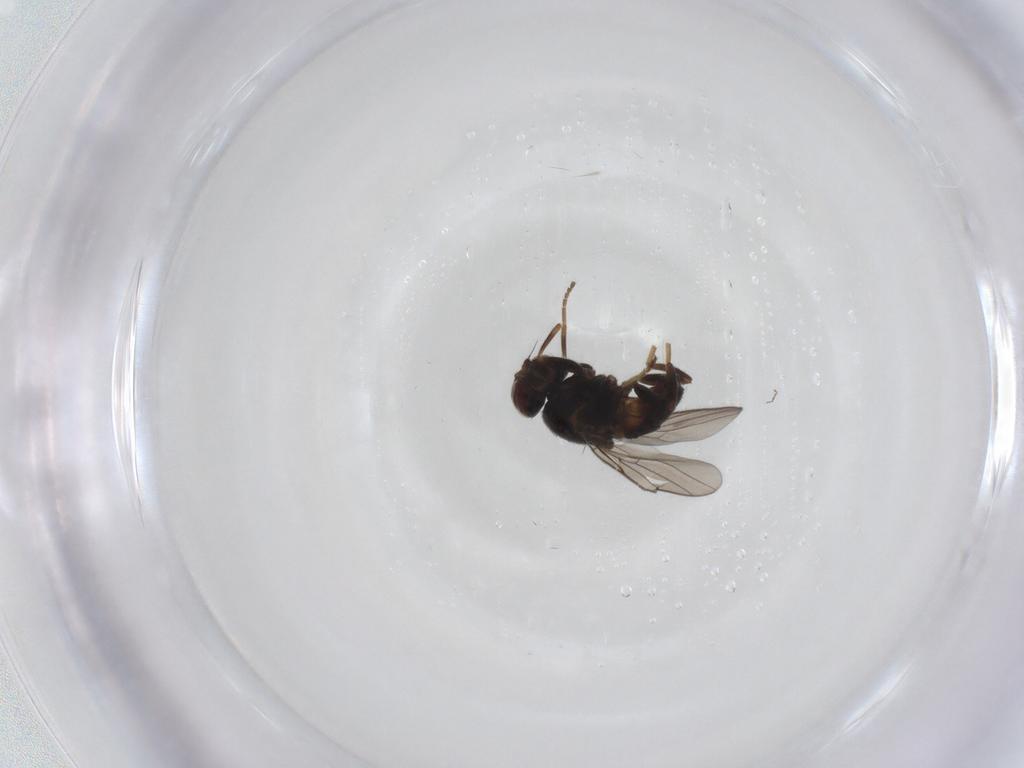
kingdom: Animalia
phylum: Arthropoda
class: Insecta
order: Diptera
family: Chloropidae
